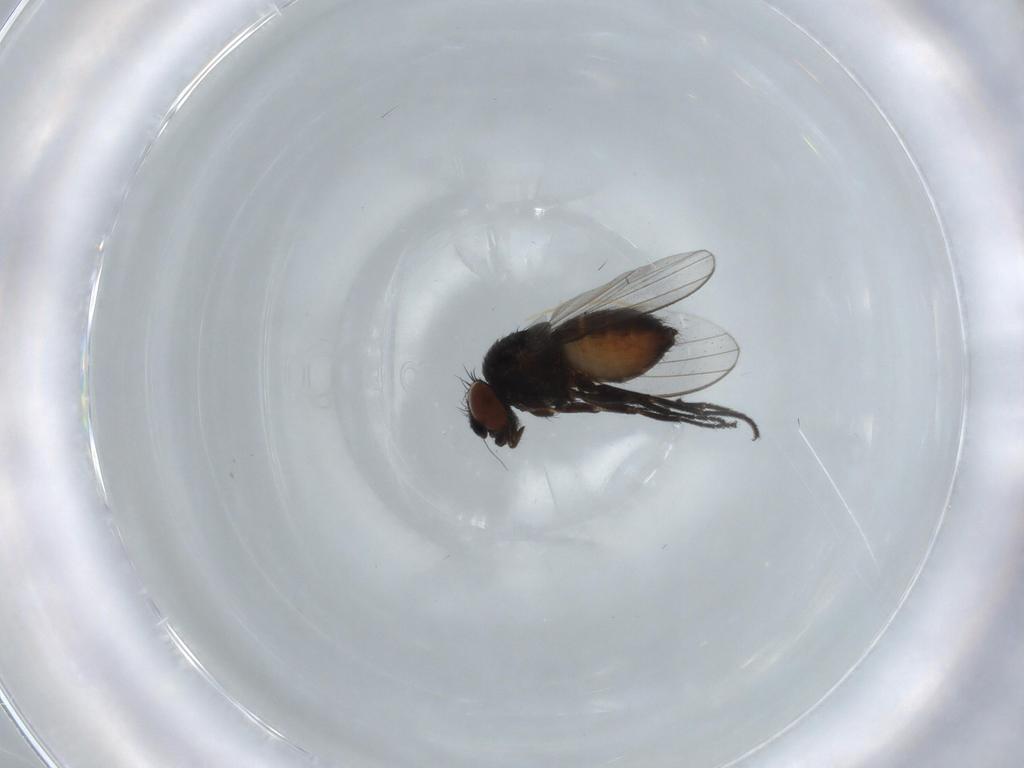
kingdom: Animalia
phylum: Arthropoda
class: Insecta
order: Diptera
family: Milichiidae
